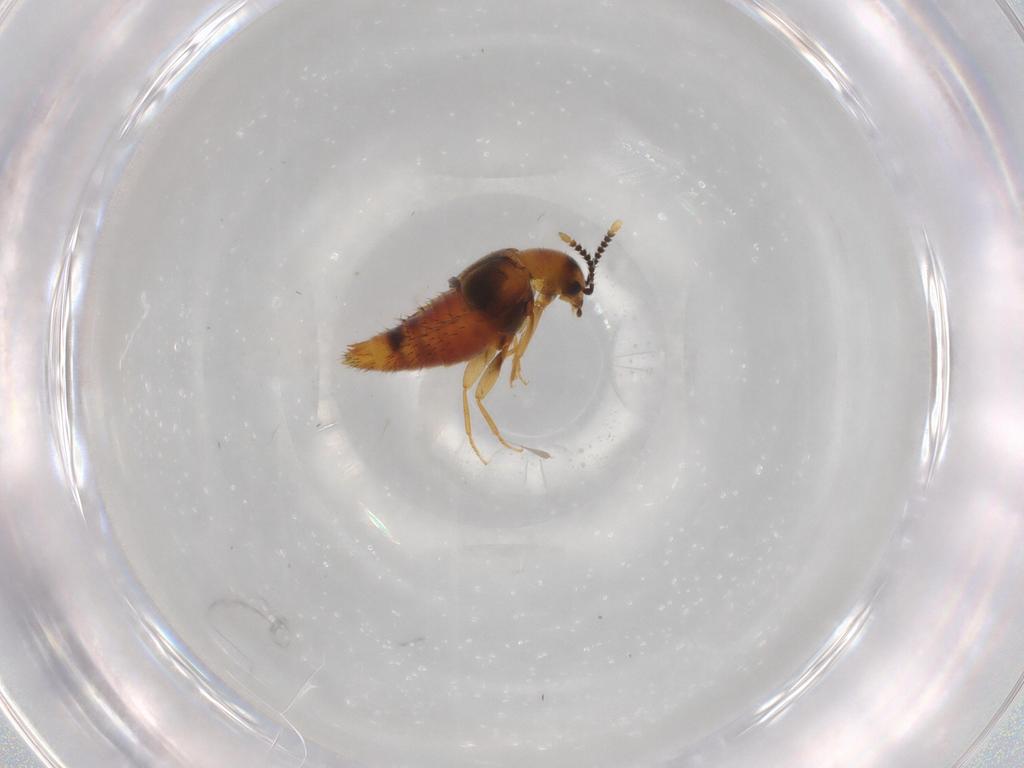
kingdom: Animalia
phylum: Arthropoda
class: Insecta
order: Coleoptera
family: Staphylinidae
